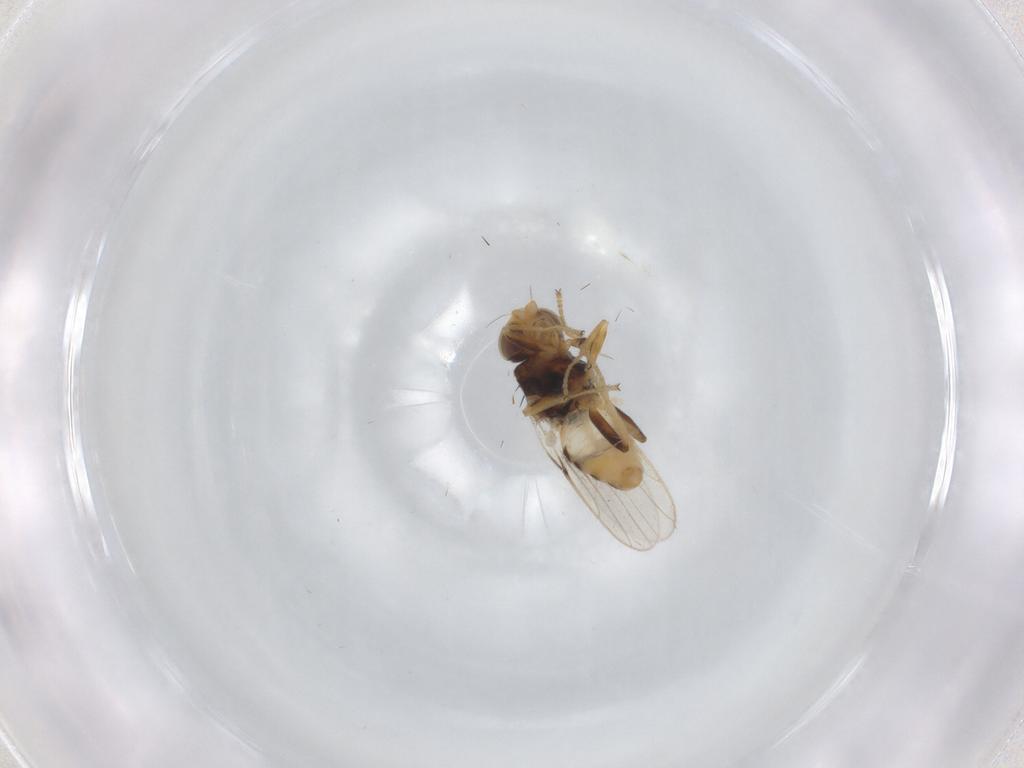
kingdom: Animalia
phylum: Arthropoda
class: Insecta
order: Diptera
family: Chloropidae
